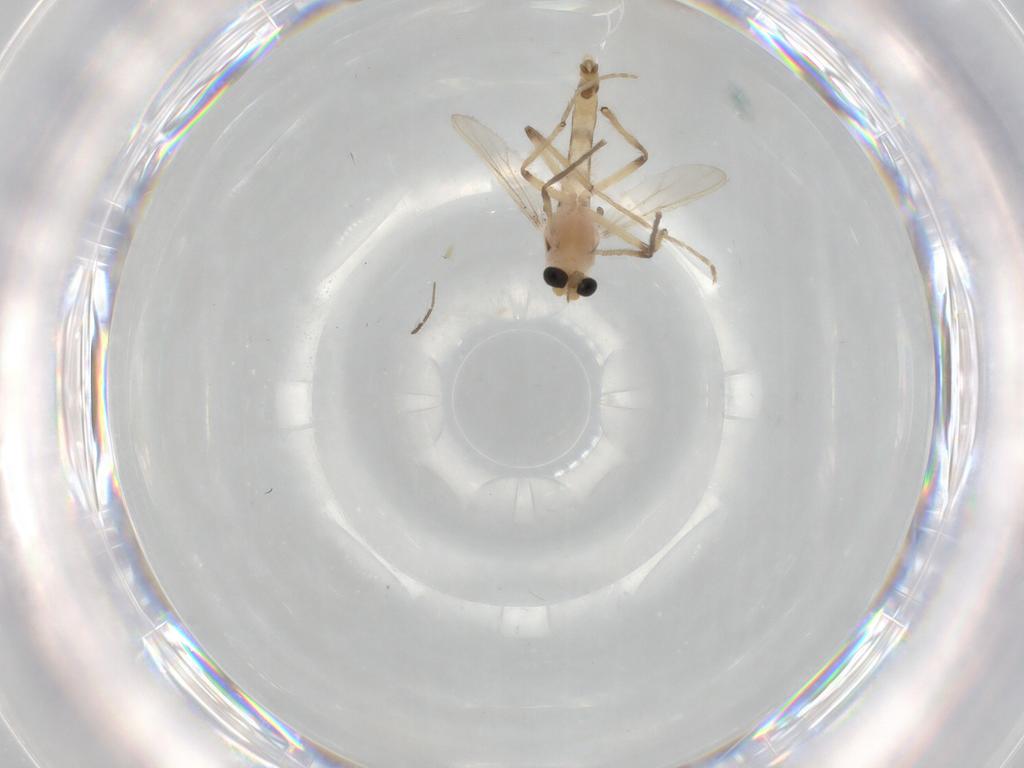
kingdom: Animalia
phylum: Arthropoda
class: Insecta
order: Diptera
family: Chironomidae
